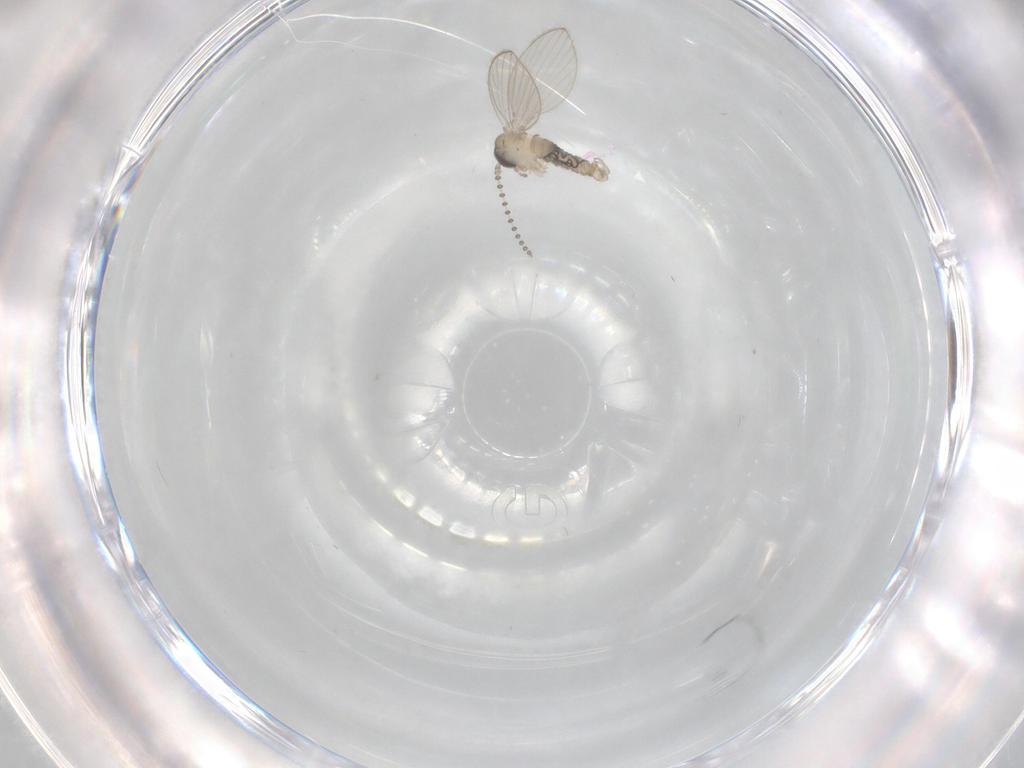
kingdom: Animalia
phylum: Arthropoda
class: Insecta
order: Diptera
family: Psychodidae
